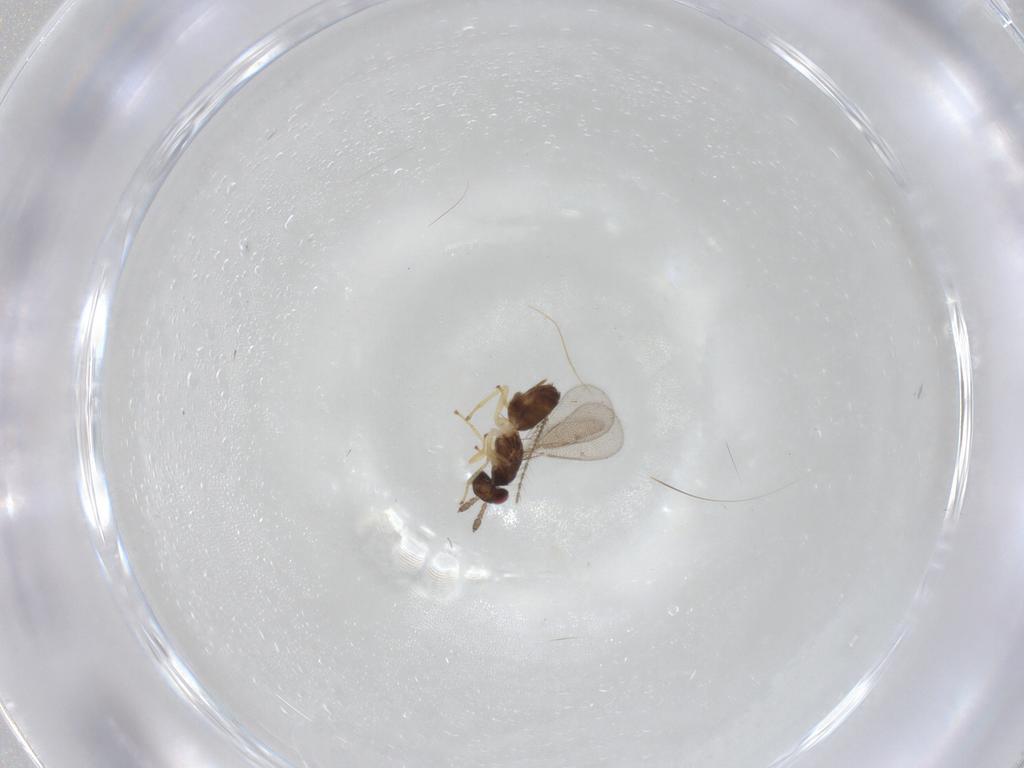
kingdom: Animalia
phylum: Arthropoda
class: Insecta
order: Hymenoptera
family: Eulophidae
